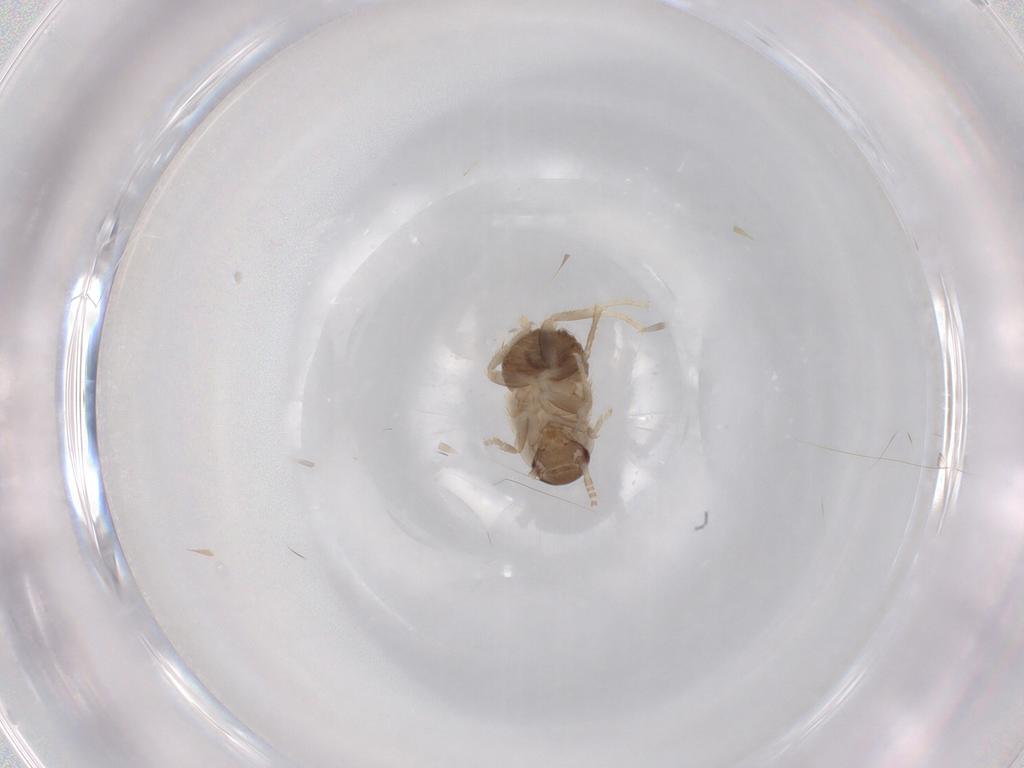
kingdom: Animalia
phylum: Arthropoda
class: Insecta
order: Blattodea
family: Ectobiidae
